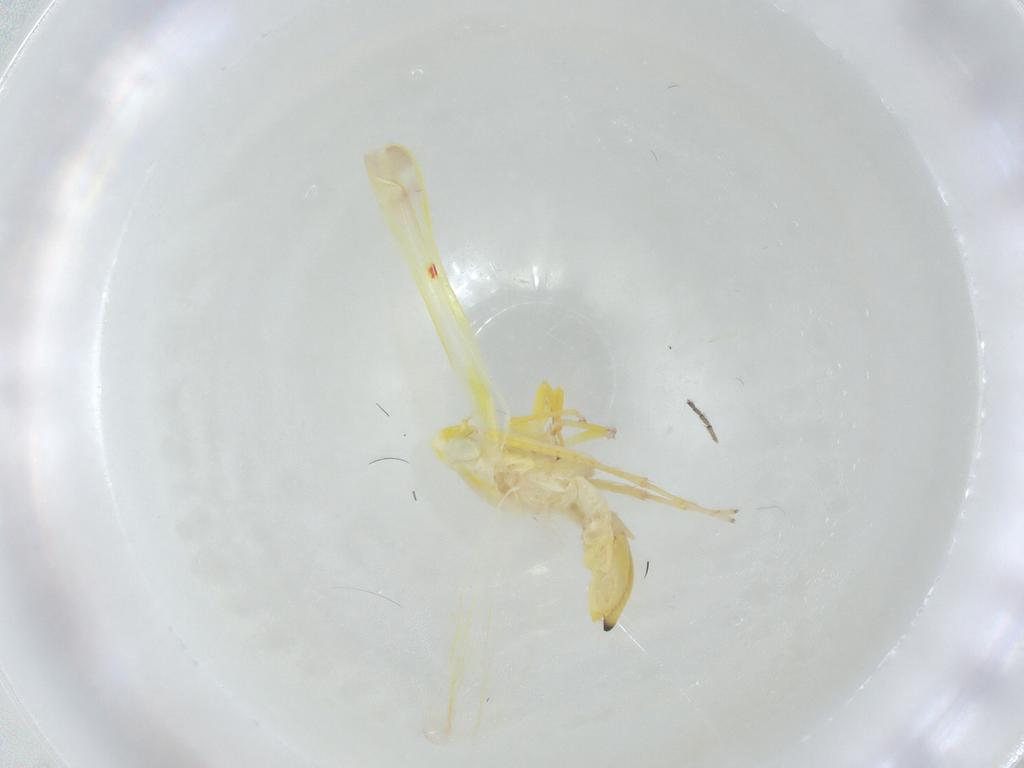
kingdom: Animalia
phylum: Arthropoda
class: Insecta
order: Hemiptera
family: Cicadellidae
